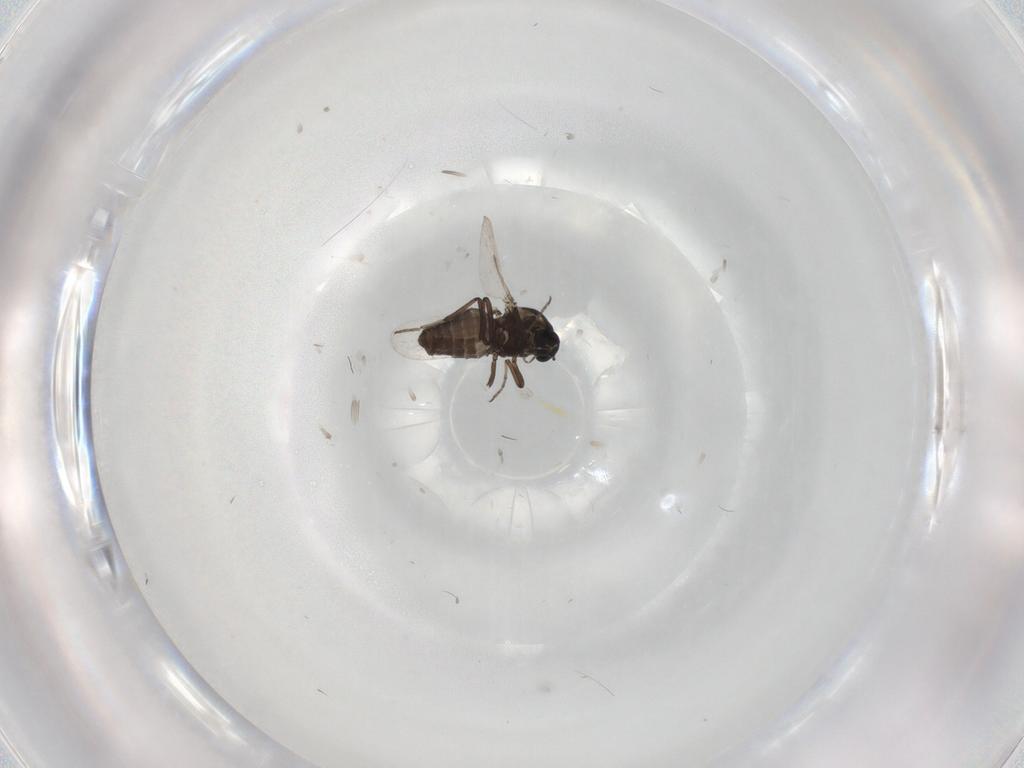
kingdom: Animalia
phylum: Arthropoda
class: Insecta
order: Diptera
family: Ceratopogonidae
